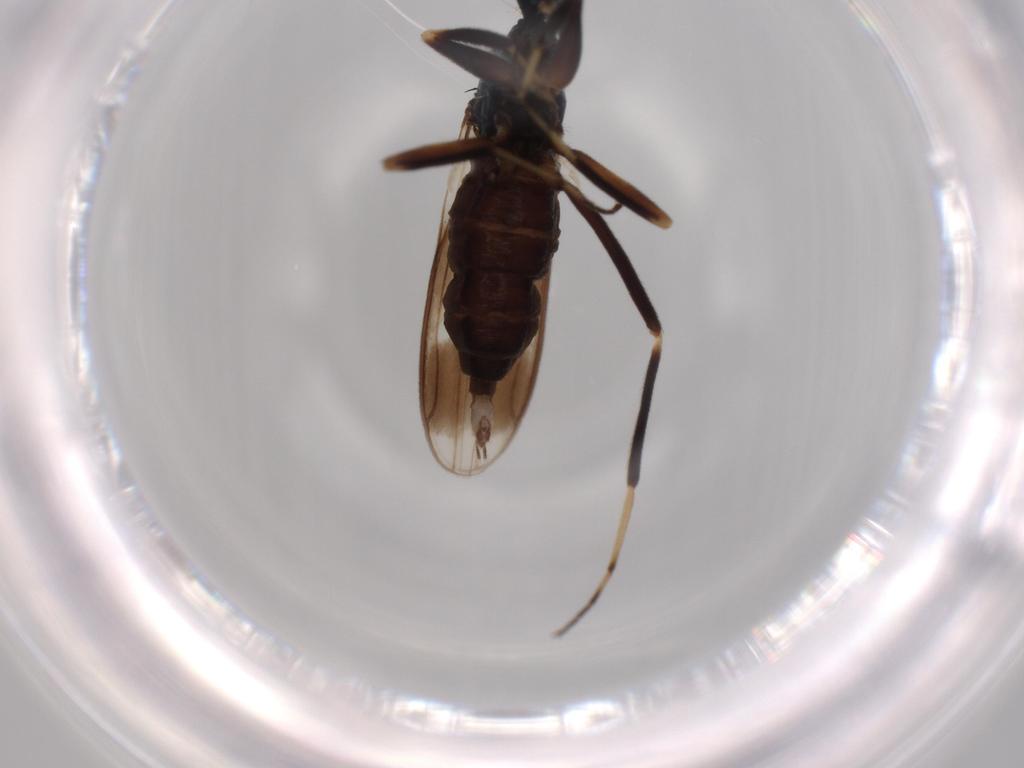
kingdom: Animalia
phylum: Arthropoda
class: Insecta
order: Diptera
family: Hybotidae
